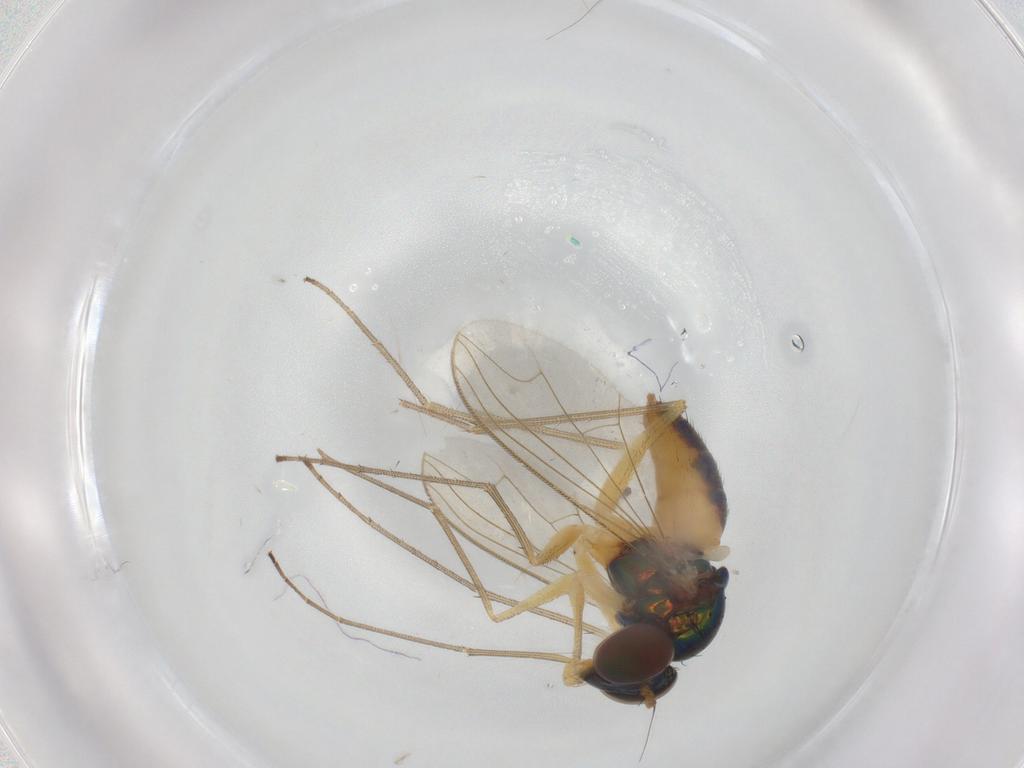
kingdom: Animalia
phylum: Arthropoda
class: Insecta
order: Diptera
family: Dolichopodidae
